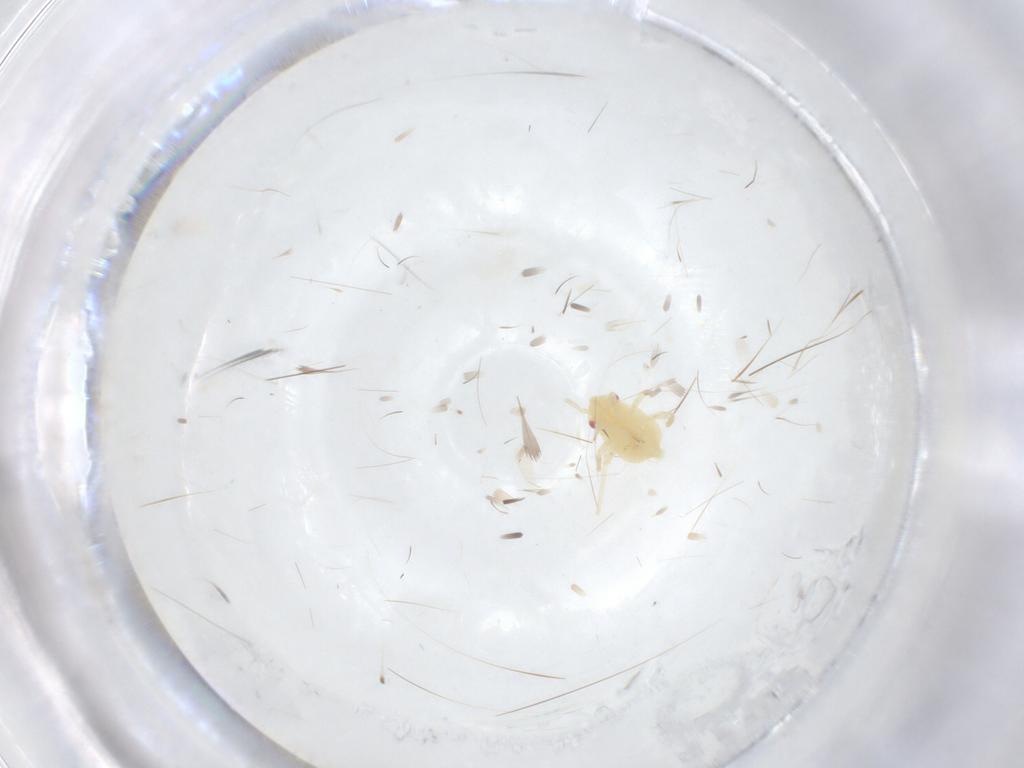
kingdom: Animalia
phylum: Arthropoda
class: Insecta
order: Hemiptera
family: Miridae
